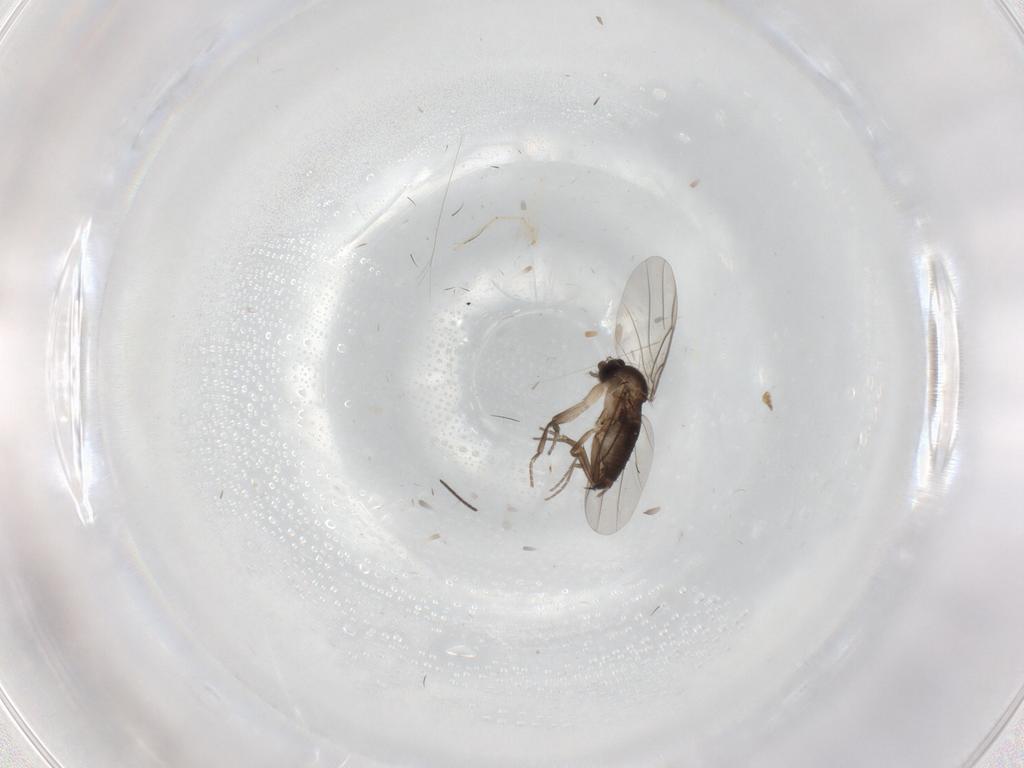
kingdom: Animalia
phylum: Arthropoda
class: Insecta
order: Diptera
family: Phoridae
